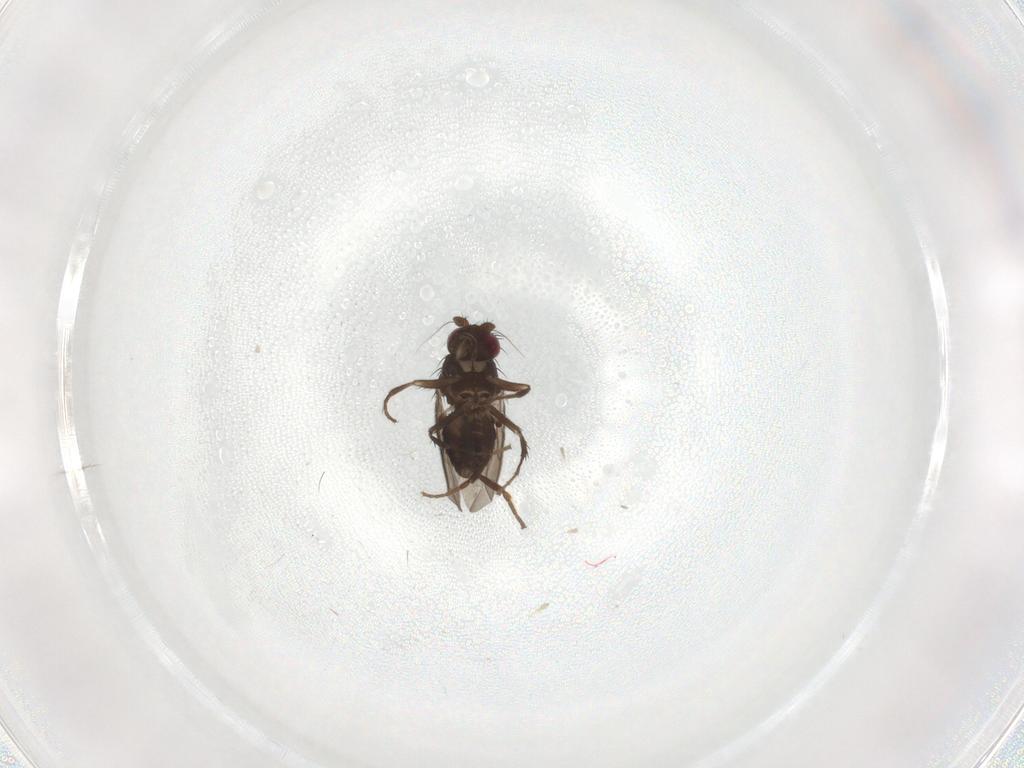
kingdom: Animalia
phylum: Arthropoda
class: Insecta
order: Diptera
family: Sphaeroceridae
